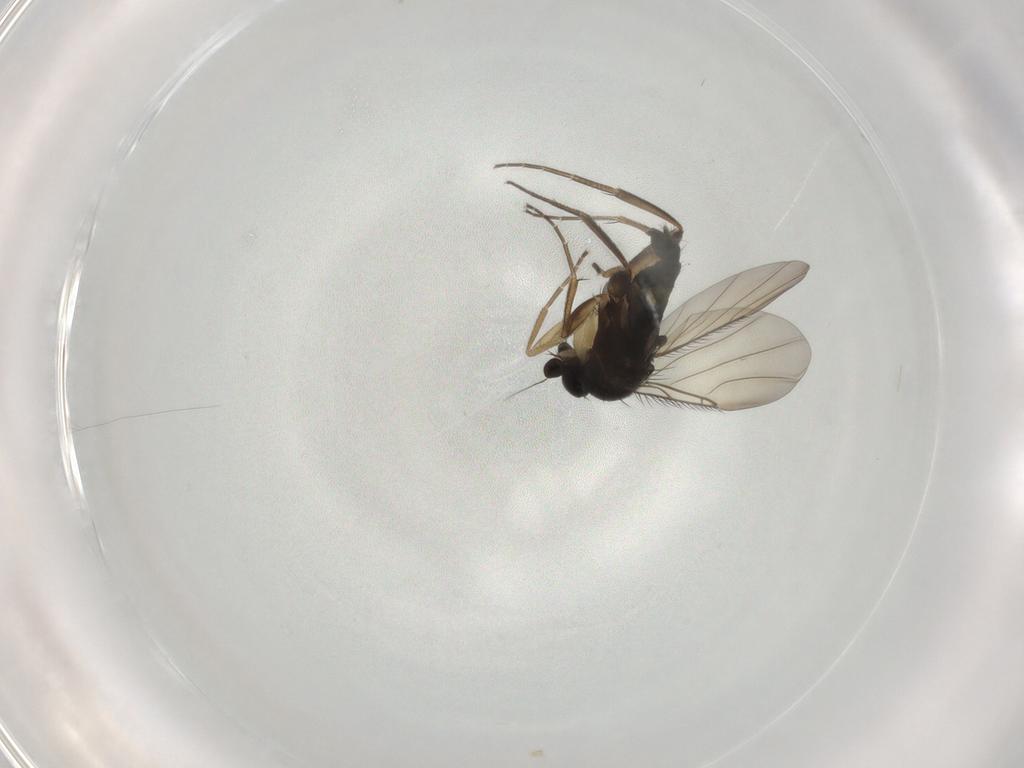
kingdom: Animalia
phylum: Arthropoda
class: Insecta
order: Diptera
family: Phoridae
